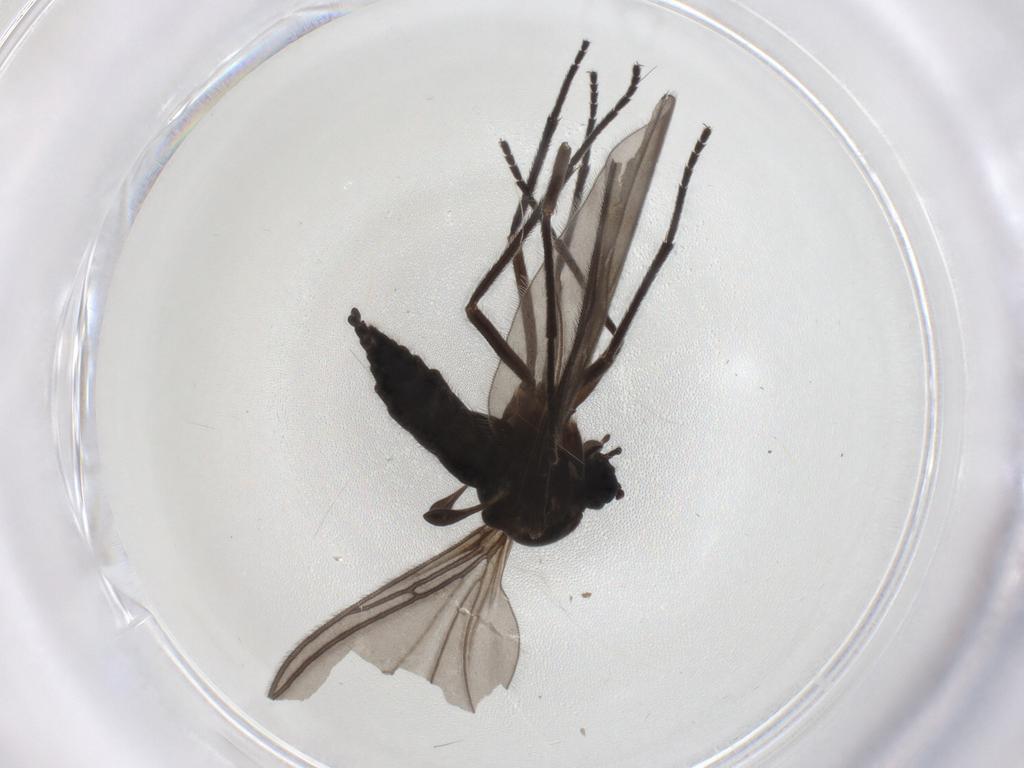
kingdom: Animalia
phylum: Arthropoda
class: Insecta
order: Diptera
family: Sciaridae
